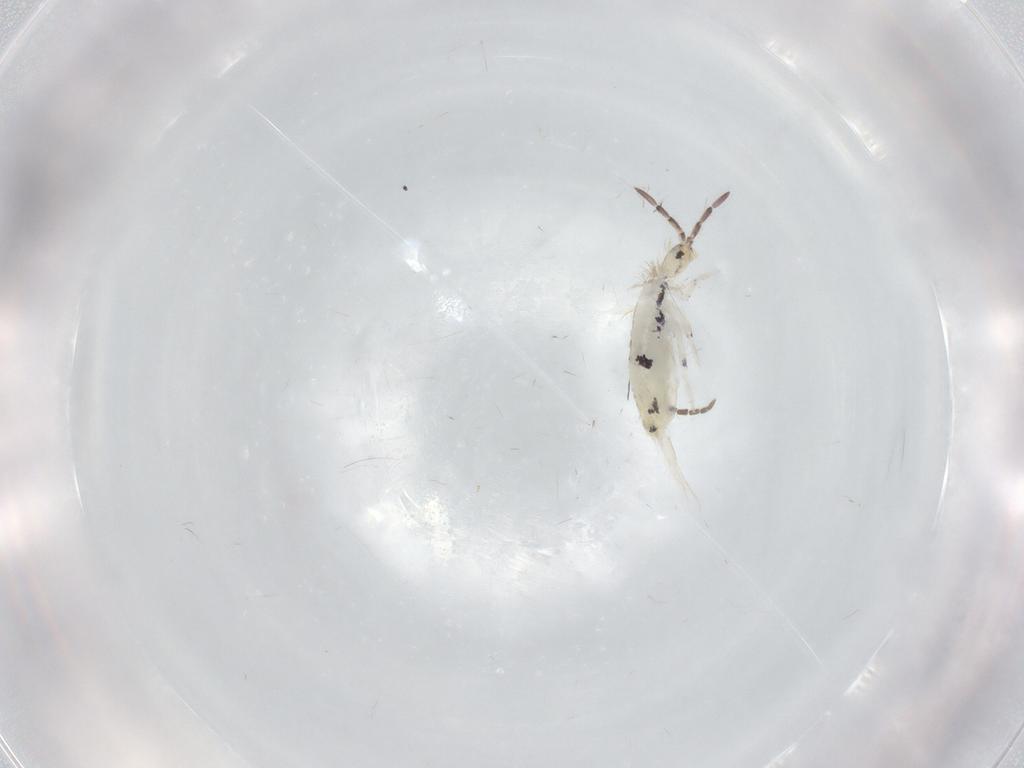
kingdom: Animalia
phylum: Arthropoda
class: Collembola
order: Entomobryomorpha
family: Entomobryidae
